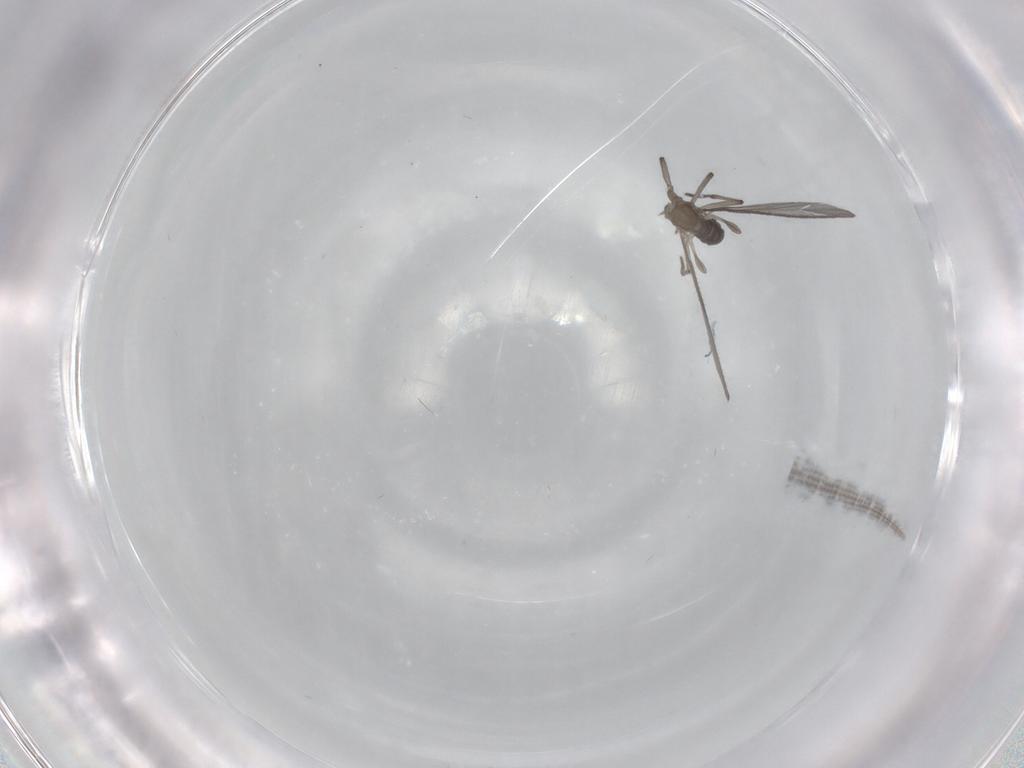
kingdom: Animalia
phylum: Arthropoda
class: Insecta
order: Diptera
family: Sciaridae
